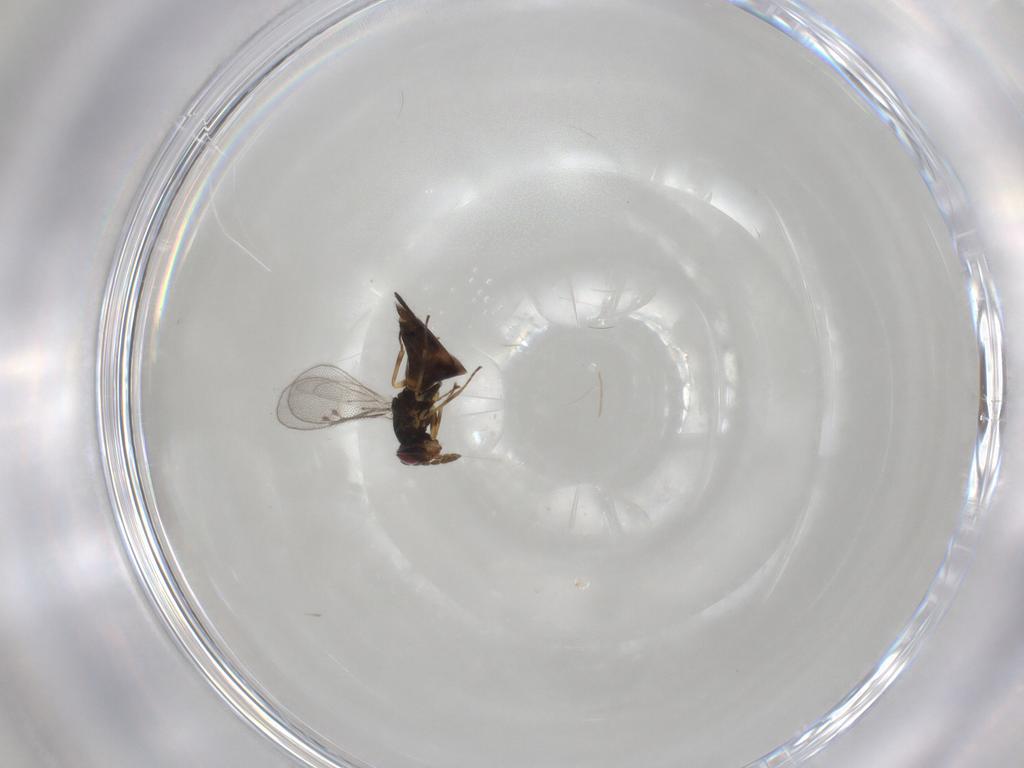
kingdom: Animalia
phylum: Arthropoda
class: Insecta
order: Hymenoptera
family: Eulophidae
